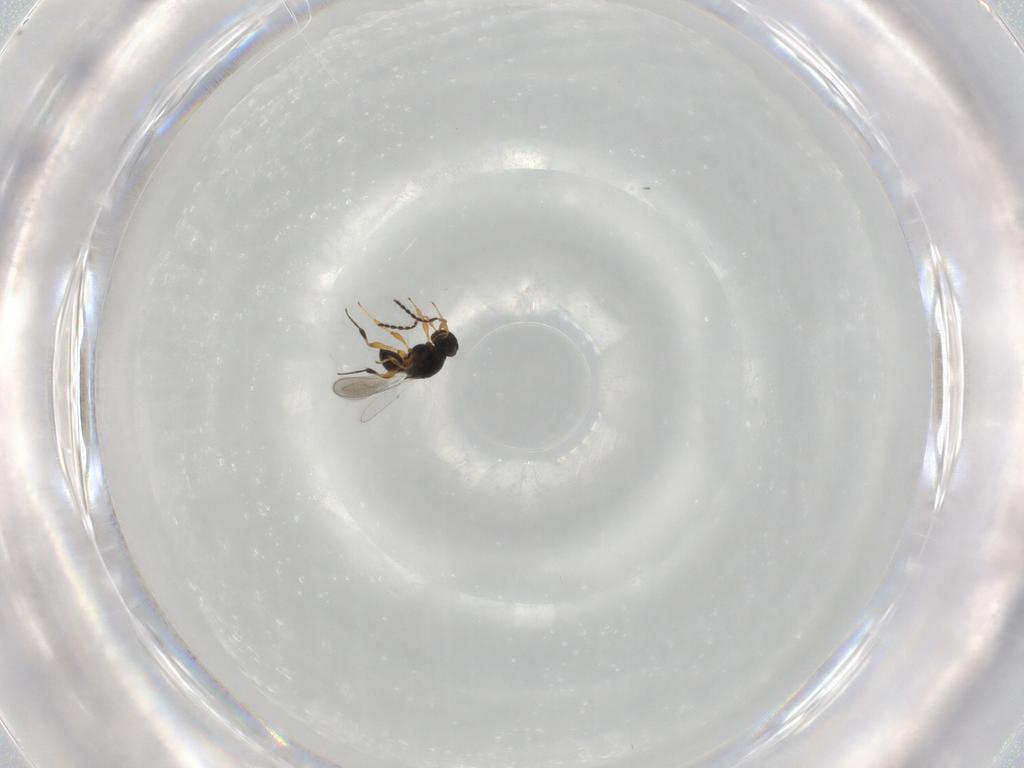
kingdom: Animalia
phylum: Arthropoda
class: Insecta
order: Hymenoptera
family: Platygastridae
